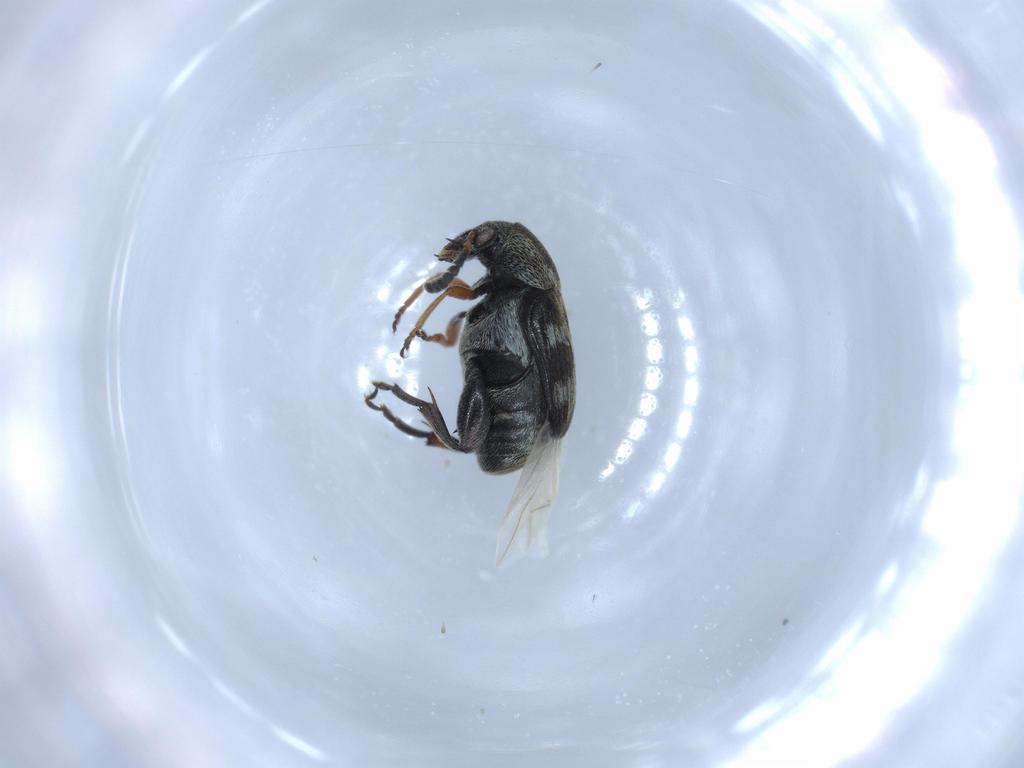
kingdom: Animalia
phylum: Arthropoda
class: Insecta
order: Coleoptera
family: Chrysomelidae
